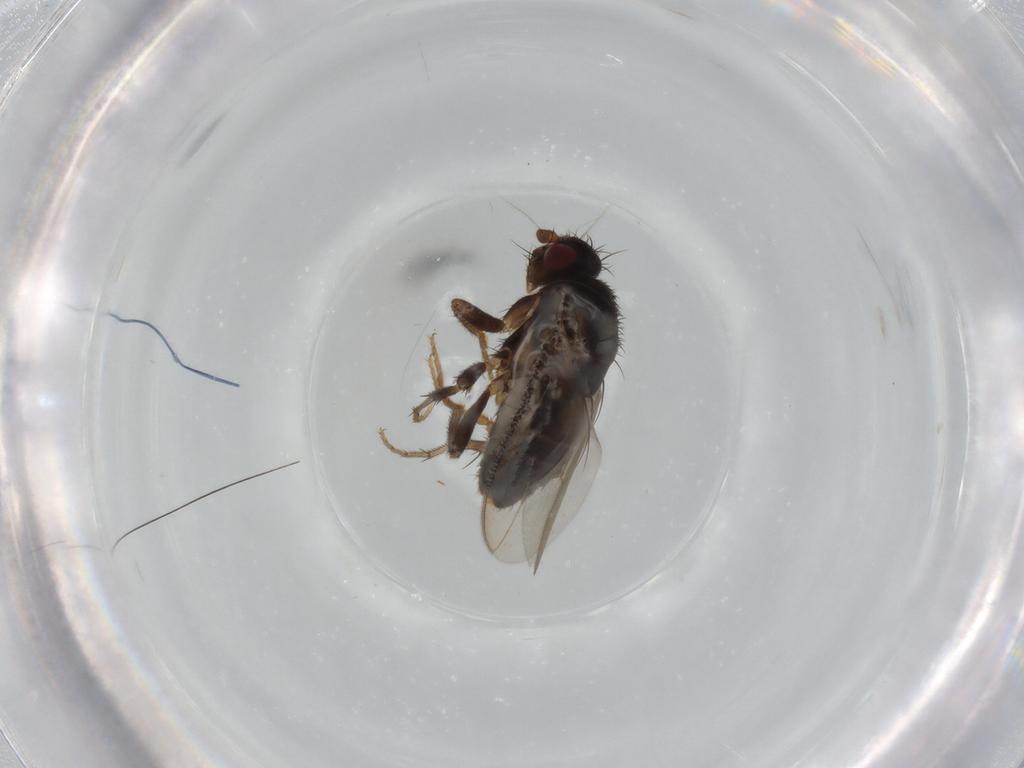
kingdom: Animalia
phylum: Arthropoda
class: Insecta
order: Diptera
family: Sphaeroceridae
